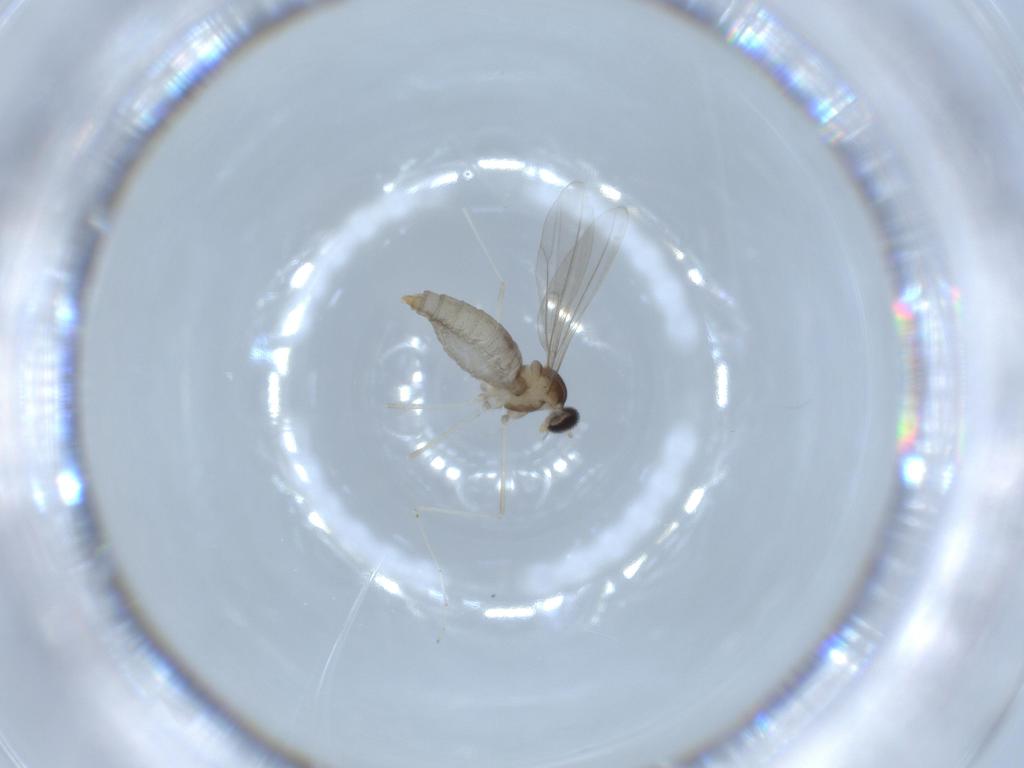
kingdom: Animalia
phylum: Arthropoda
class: Insecta
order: Diptera
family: Cecidomyiidae
